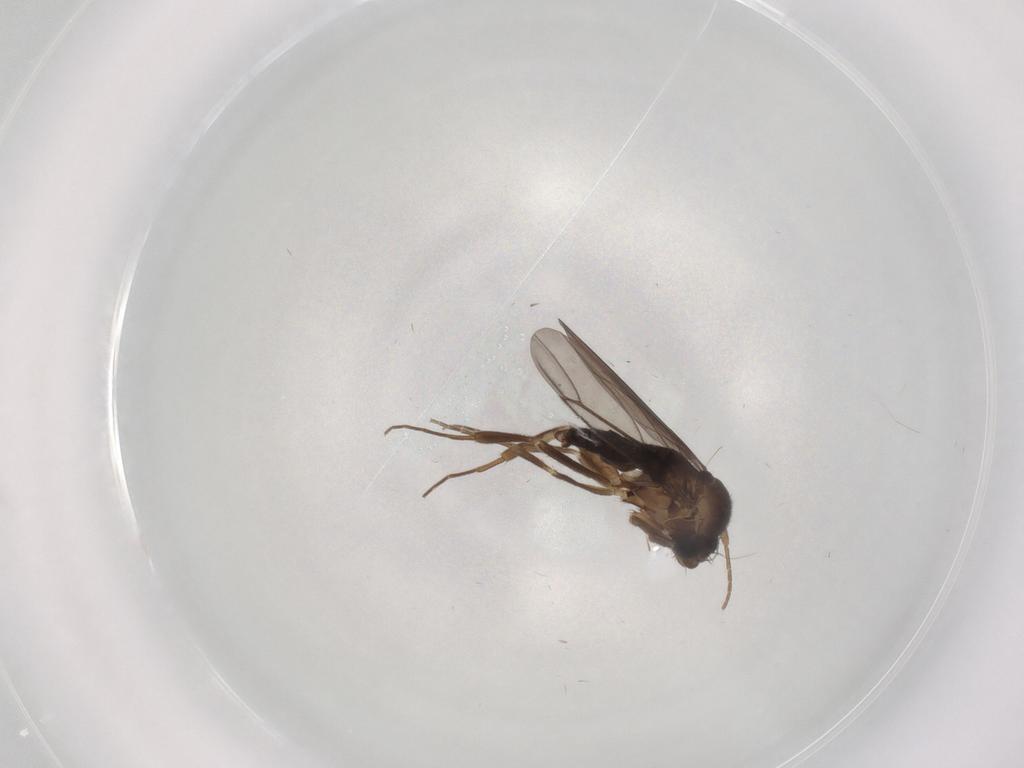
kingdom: Animalia
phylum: Arthropoda
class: Insecta
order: Diptera
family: Phoridae
